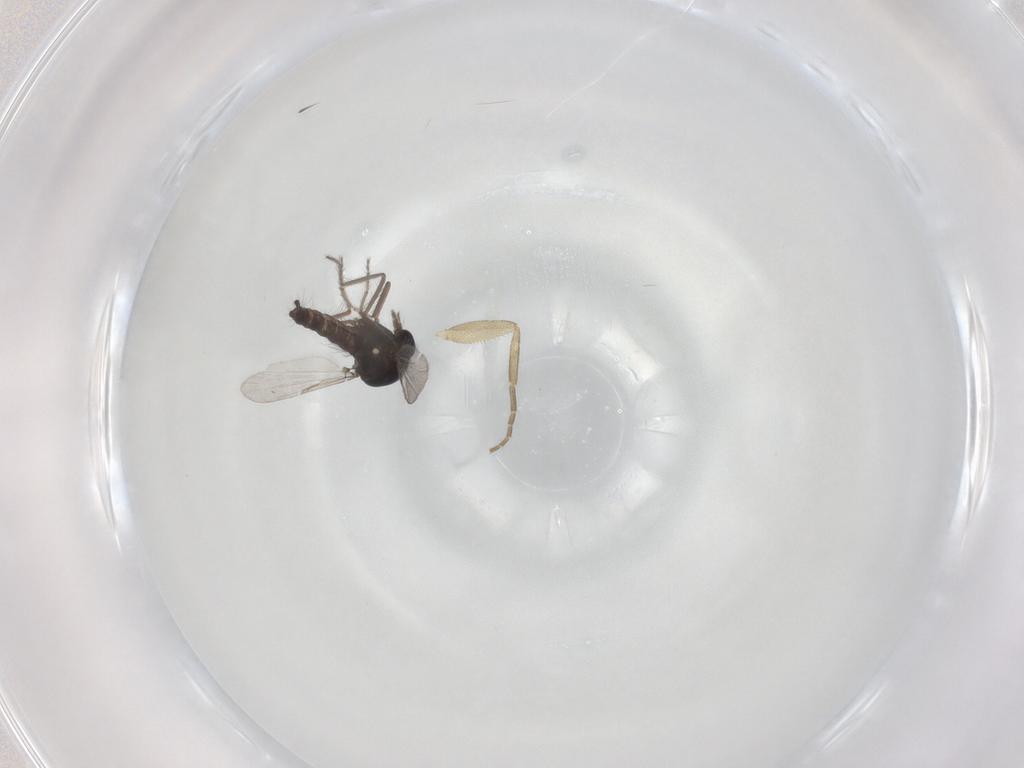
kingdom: Animalia
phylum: Arthropoda
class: Insecta
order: Diptera
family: Ceratopogonidae
